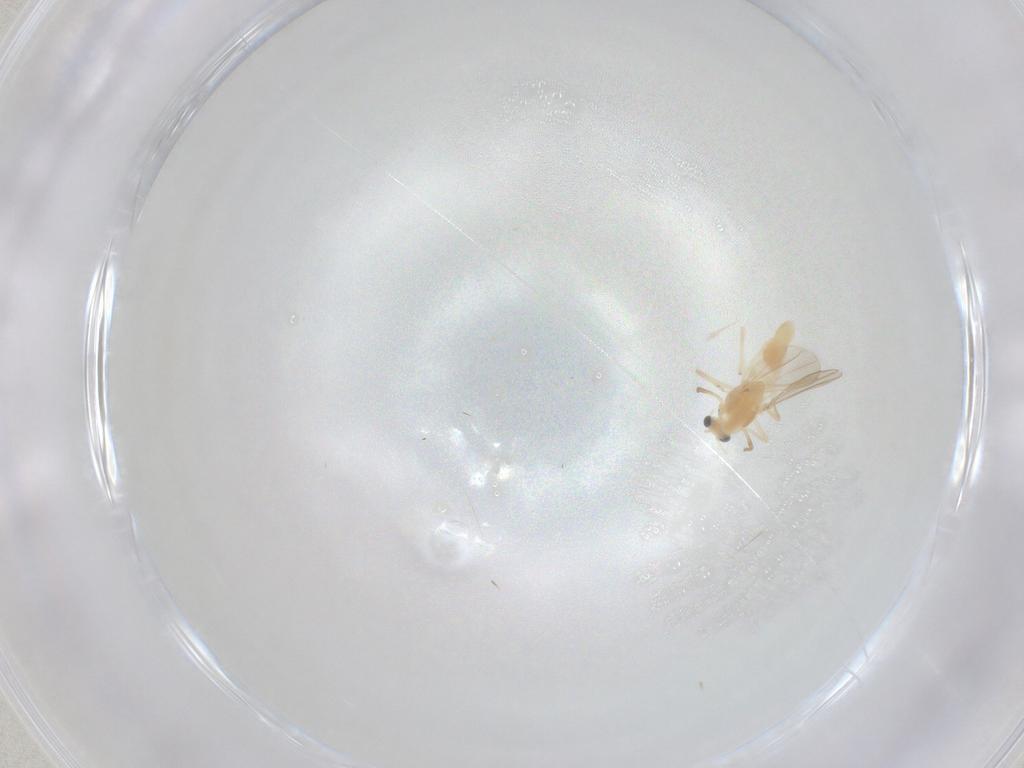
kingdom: Animalia
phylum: Arthropoda
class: Insecta
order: Diptera
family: Chironomidae
